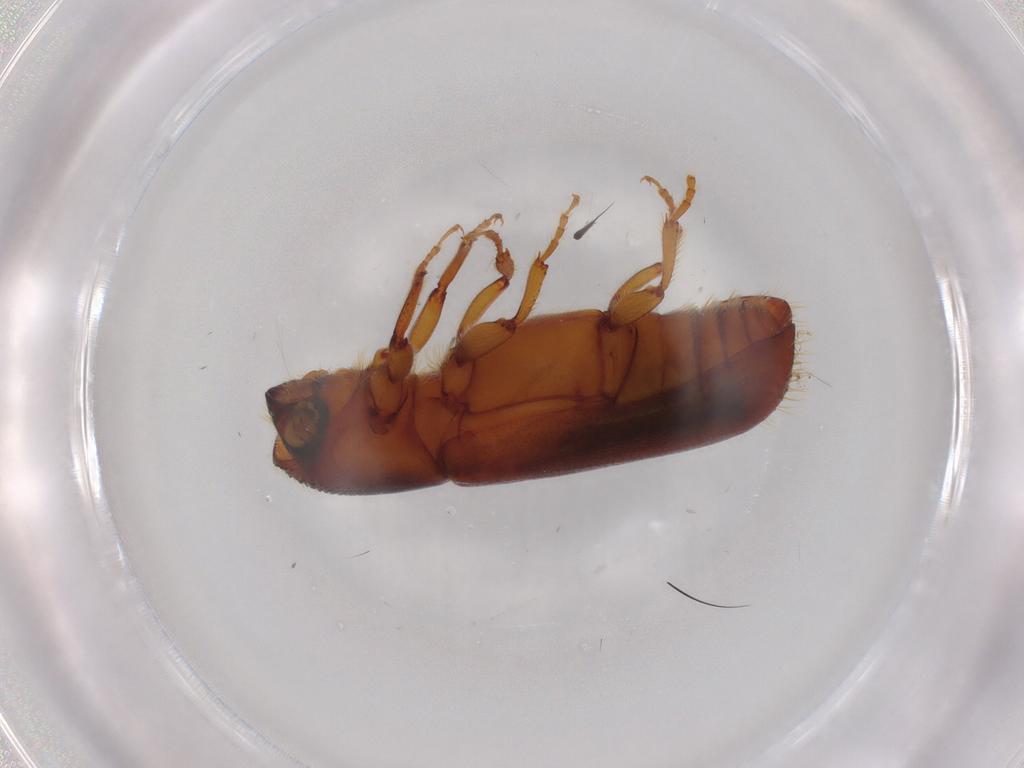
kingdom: Animalia
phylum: Arthropoda
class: Insecta
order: Coleoptera
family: Curculionidae
